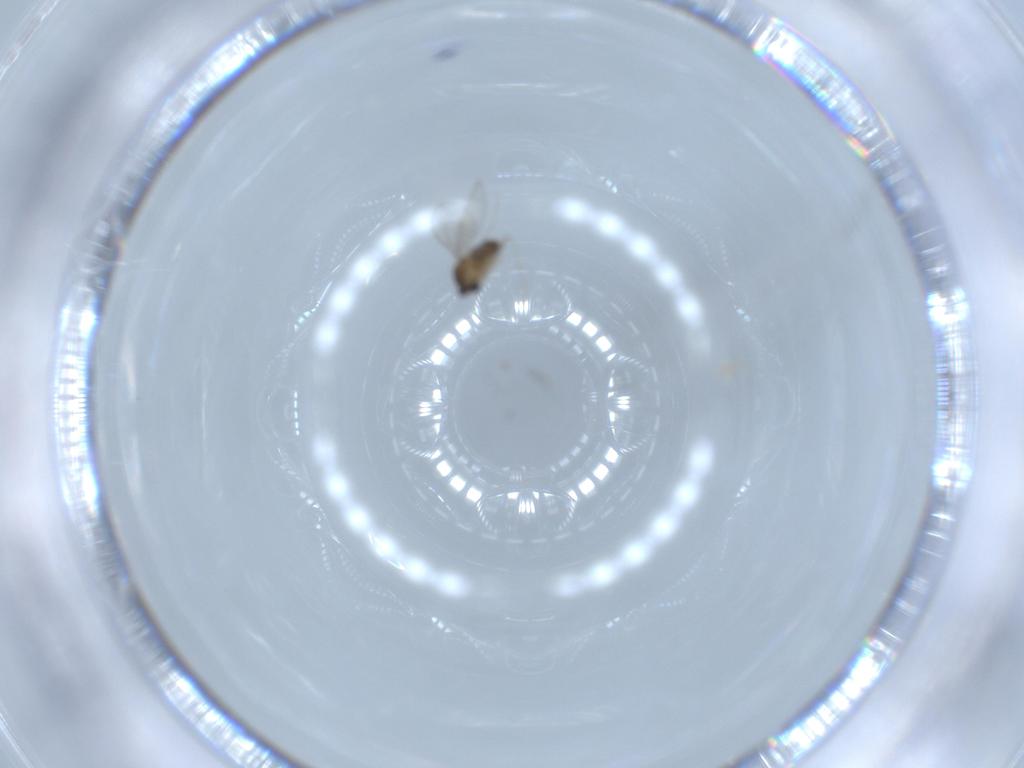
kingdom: Animalia
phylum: Arthropoda
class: Insecta
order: Diptera
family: Cecidomyiidae
